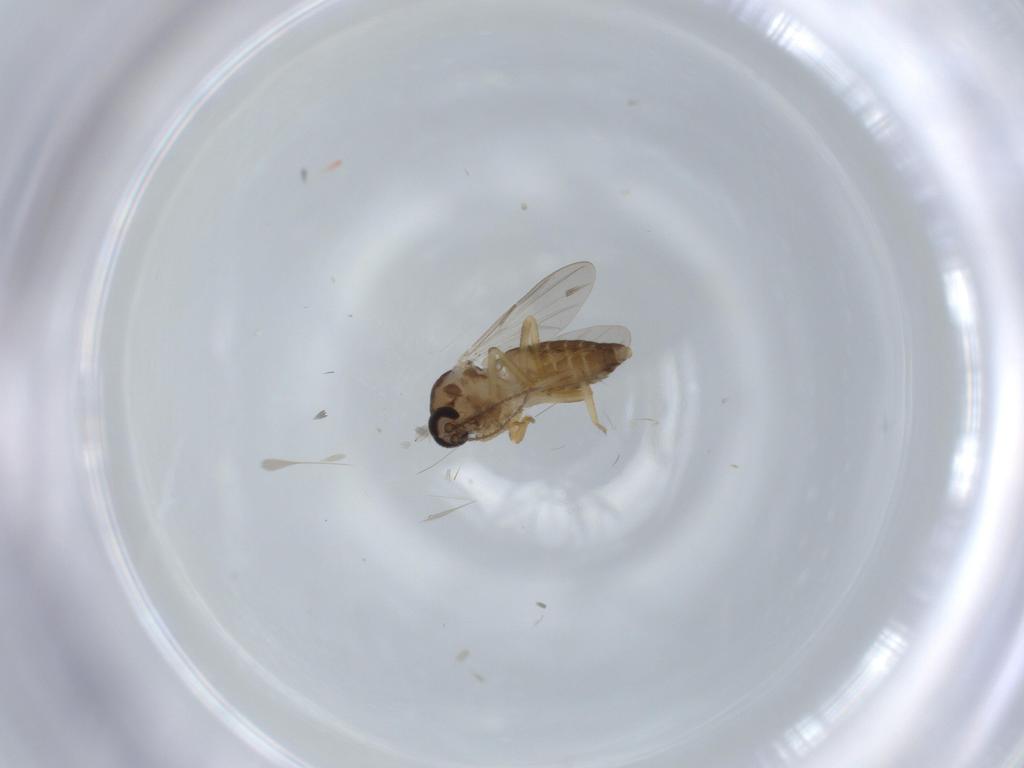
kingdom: Animalia
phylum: Arthropoda
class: Insecta
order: Diptera
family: Ceratopogonidae
